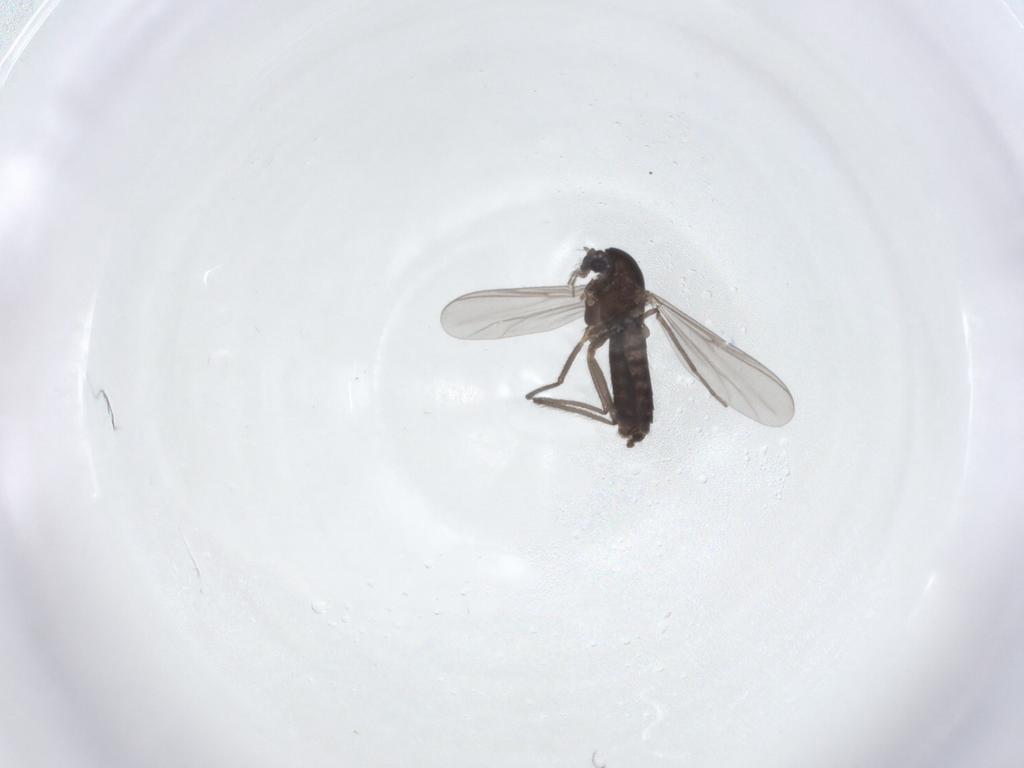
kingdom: Animalia
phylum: Arthropoda
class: Insecta
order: Diptera
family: Chironomidae
